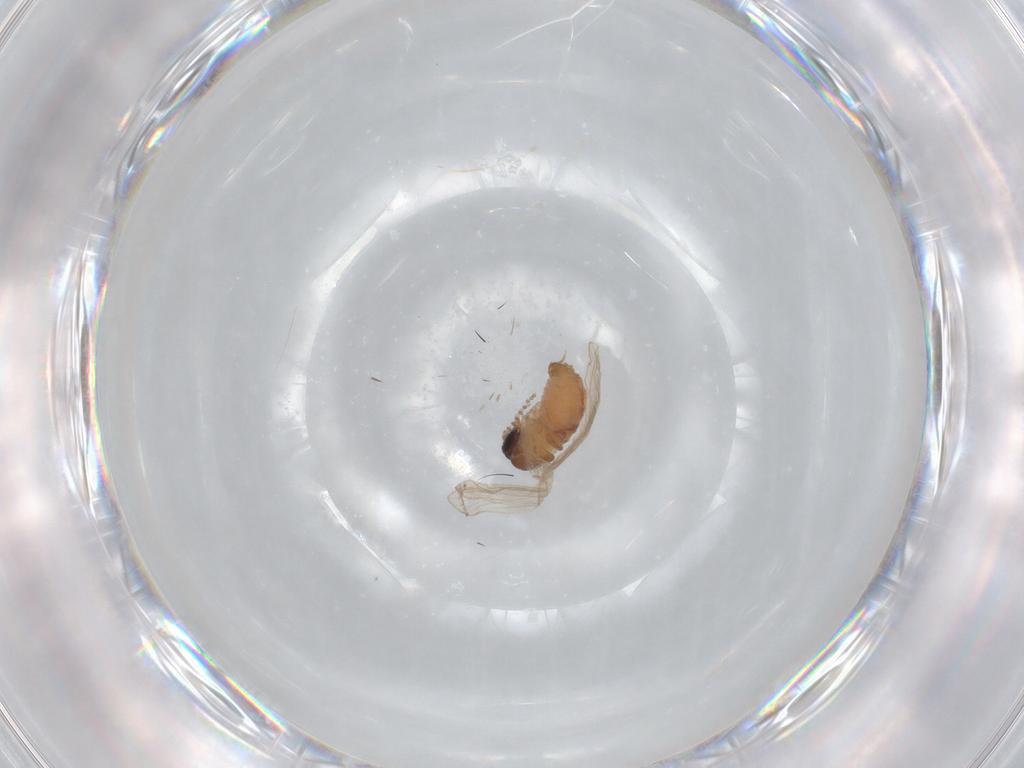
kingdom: Animalia
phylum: Arthropoda
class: Insecta
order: Diptera
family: Psychodidae
